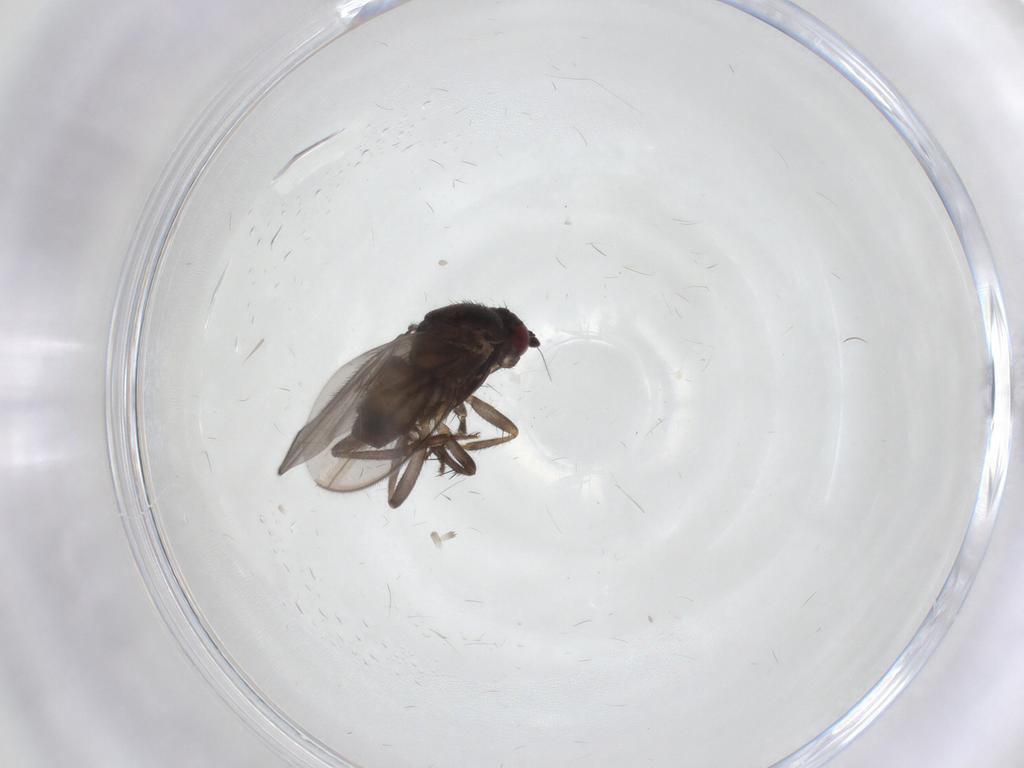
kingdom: Animalia
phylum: Arthropoda
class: Insecta
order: Diptera
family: Sphaeroceridae
